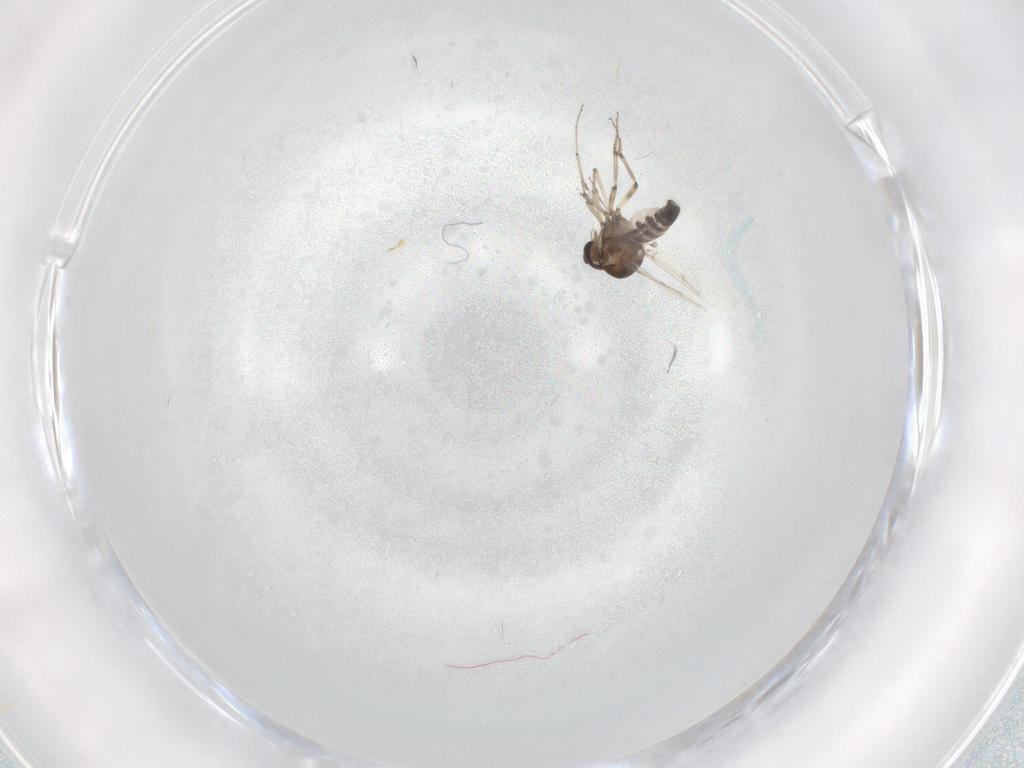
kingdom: Animalia
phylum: Arthropoda
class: Insecta
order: Diptera
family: Ceratopogonidae
